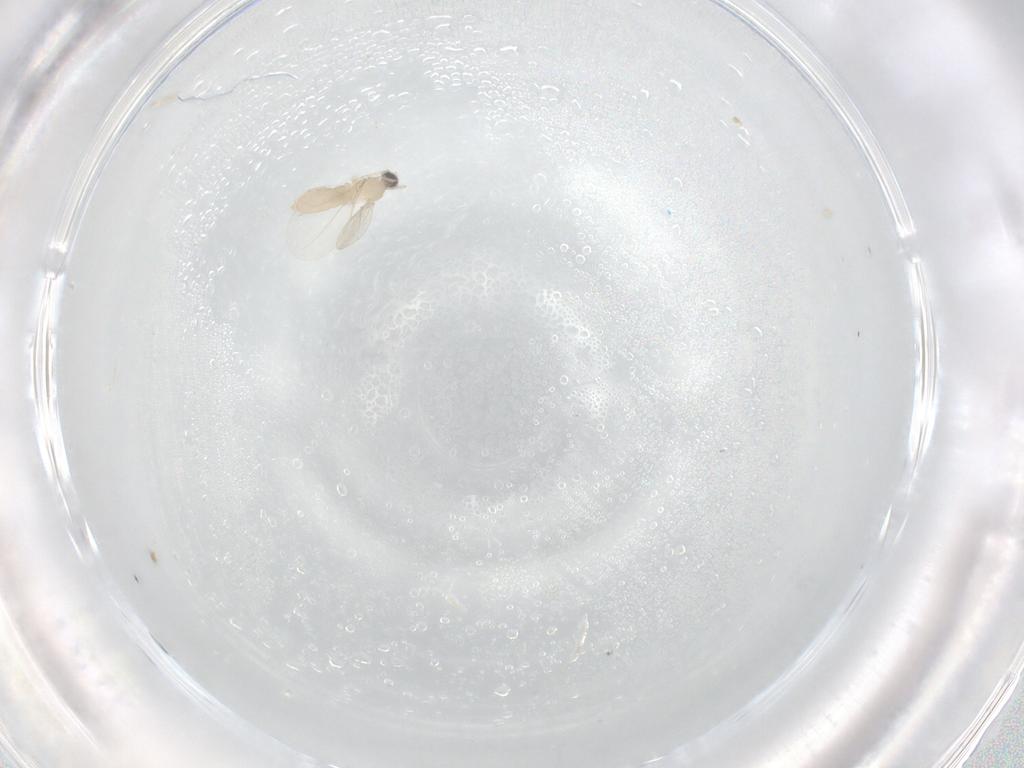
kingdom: Animalia
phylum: Arthropoda
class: Insecta
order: Diptera
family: Cecidomyiidae
